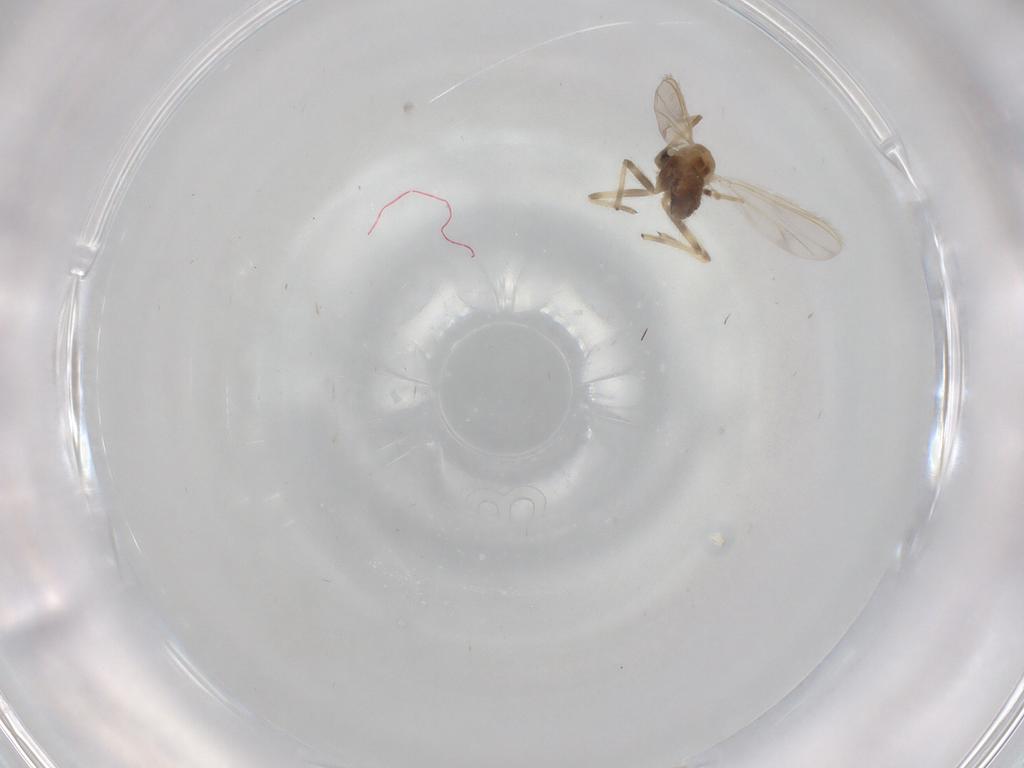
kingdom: Animalia
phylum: Arthropoda
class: Insecta
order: Diptera
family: Chironomidae
